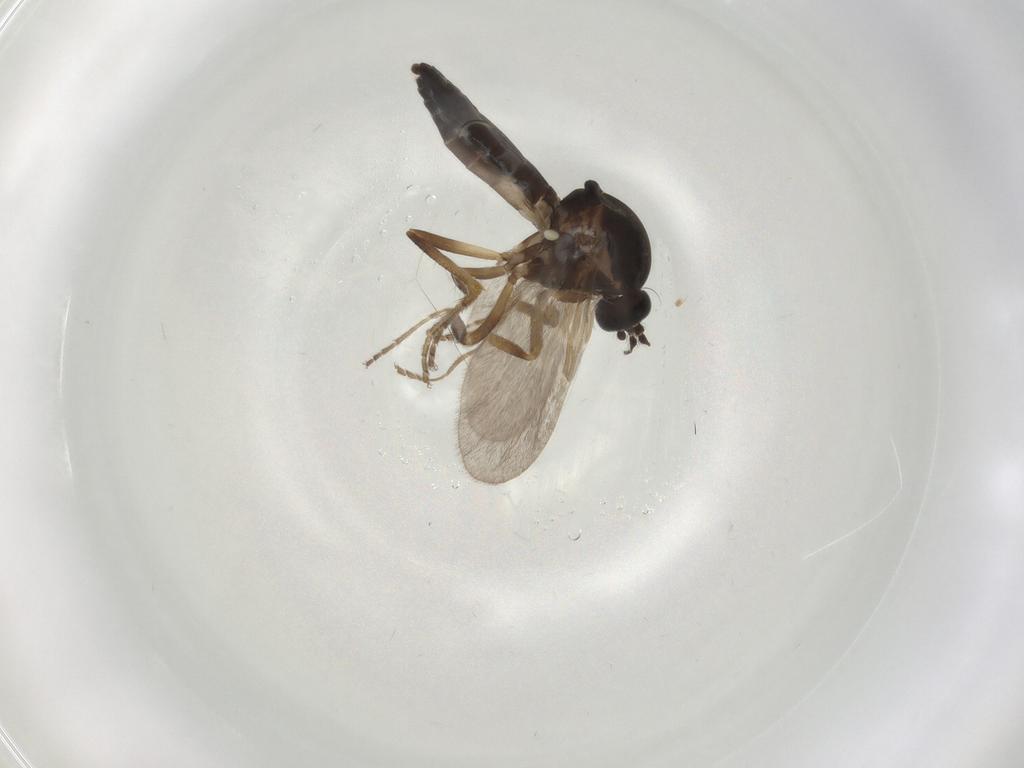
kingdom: Animalia
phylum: Arthropoda
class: Insecta
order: Diptera
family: Ceratopogonidae
